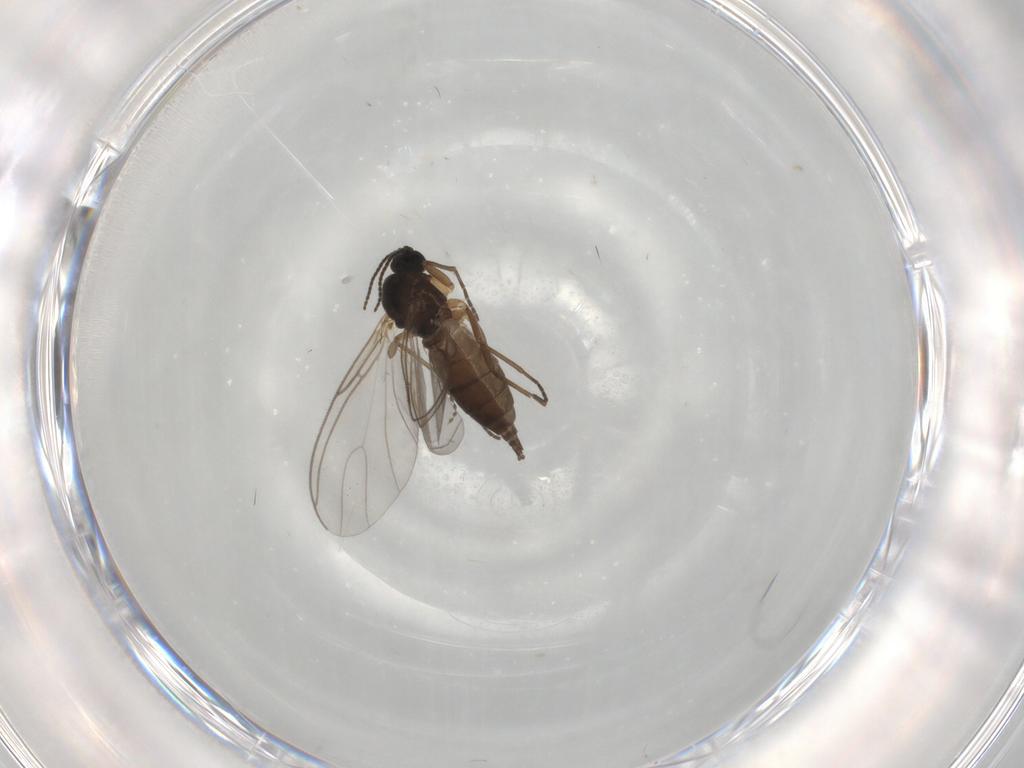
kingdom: Animalia
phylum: Arthropoda
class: Insecta
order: Diptera
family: Sciaridae
